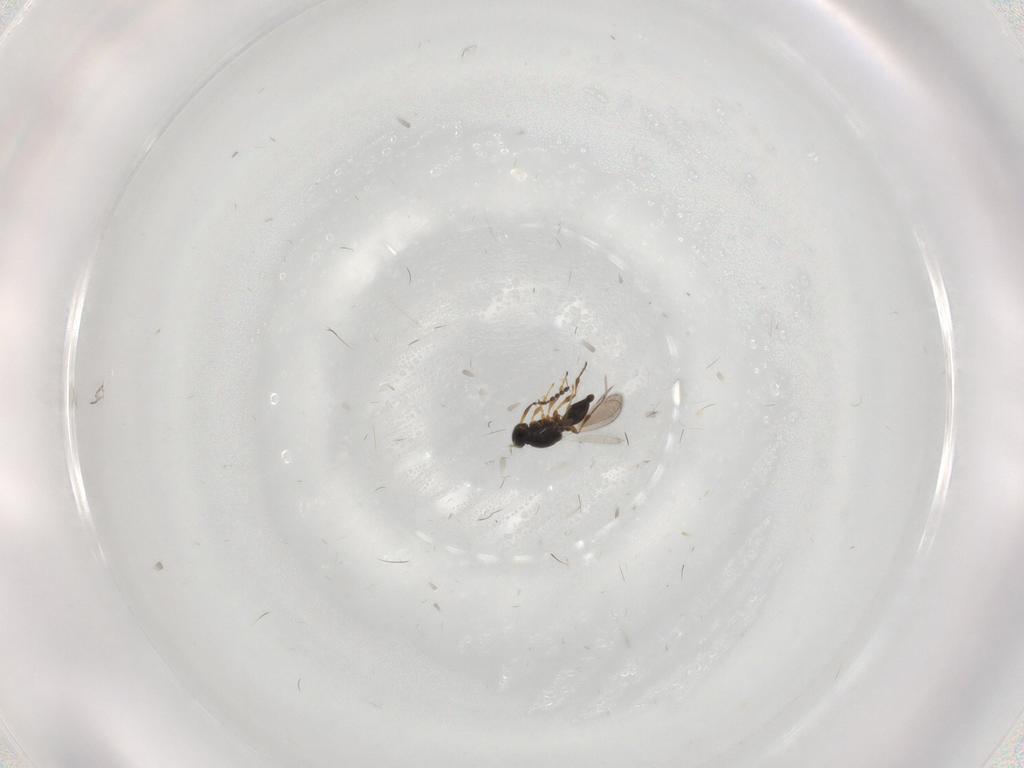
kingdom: Animalia
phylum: Arthropoda
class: Insecta
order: Hymenoptera
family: Platygastridae
